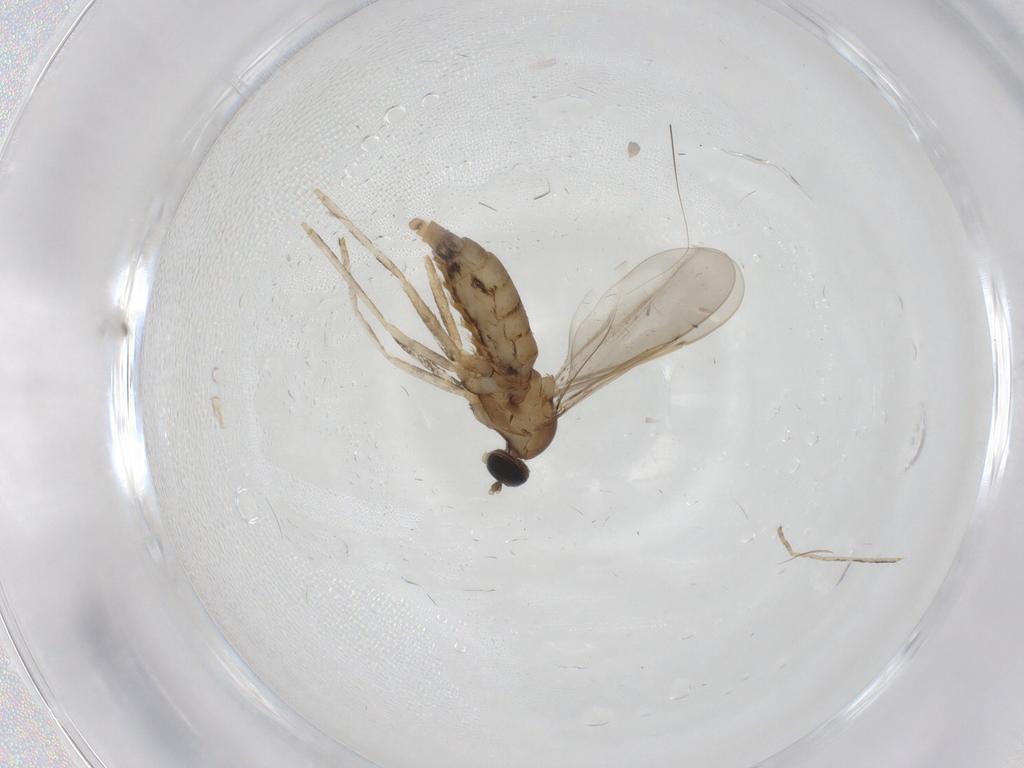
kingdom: Animalia
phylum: Arthropoda
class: Insecta
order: Diptera
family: Cecidomyiidae
